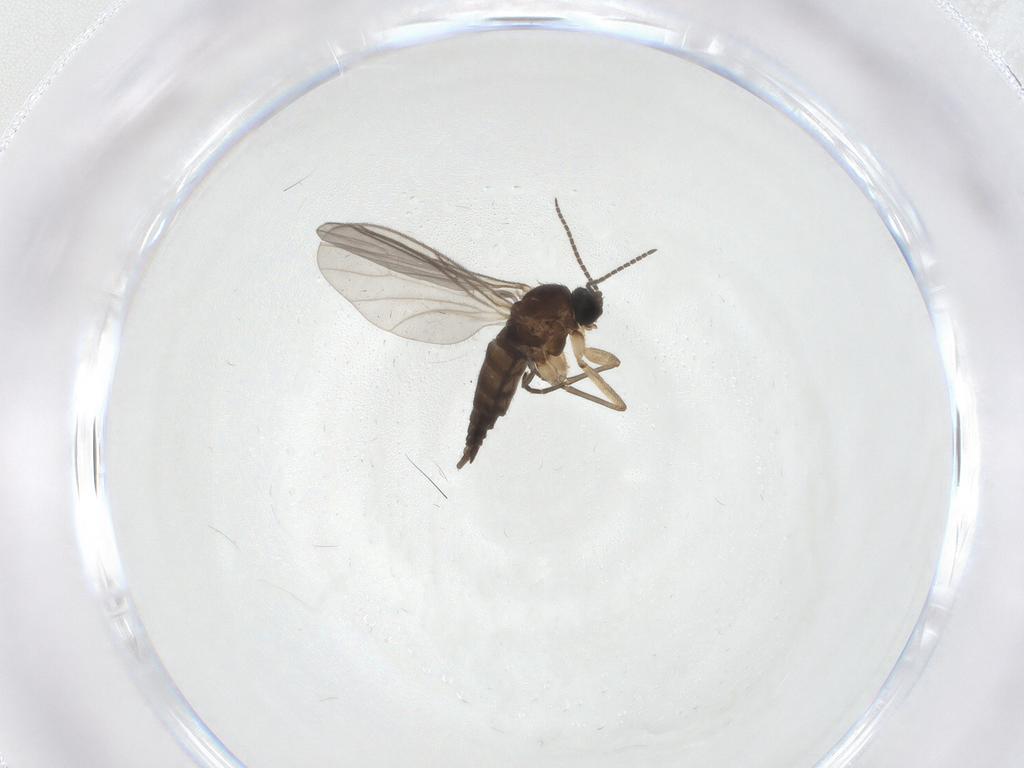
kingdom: Animalia
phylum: Arthropoda
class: Insecta
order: Diptera
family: Sciaridae
